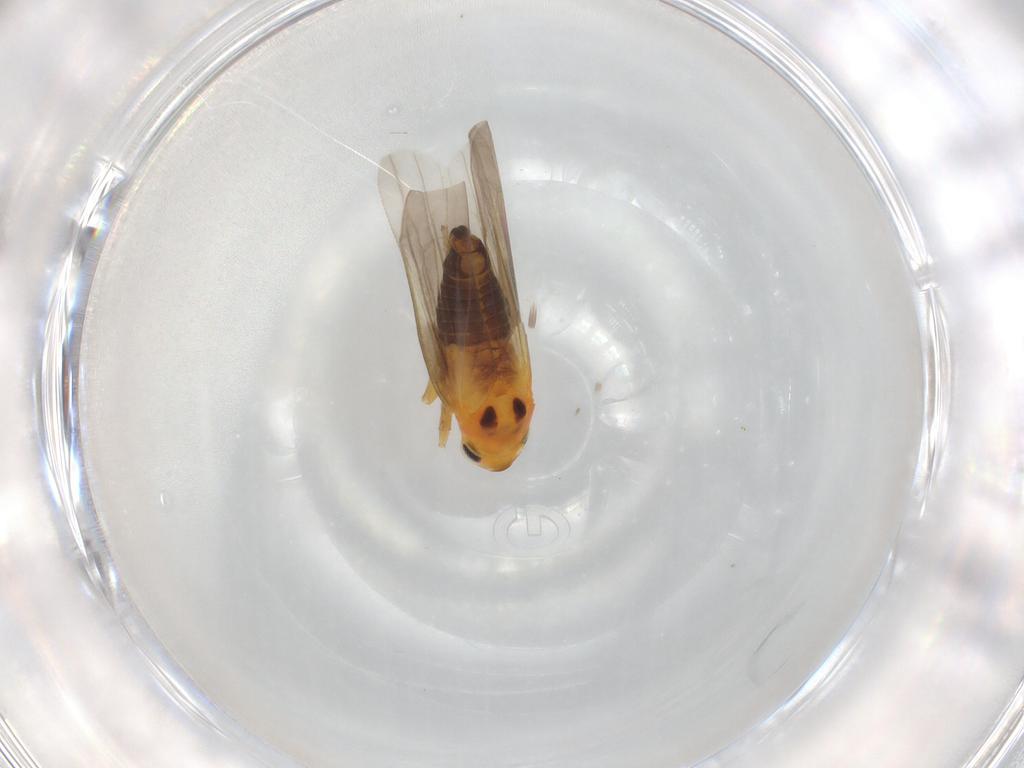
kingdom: Animalia
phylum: Arthropoda
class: Insecta
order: Hemiptera
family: Cicadellidae
